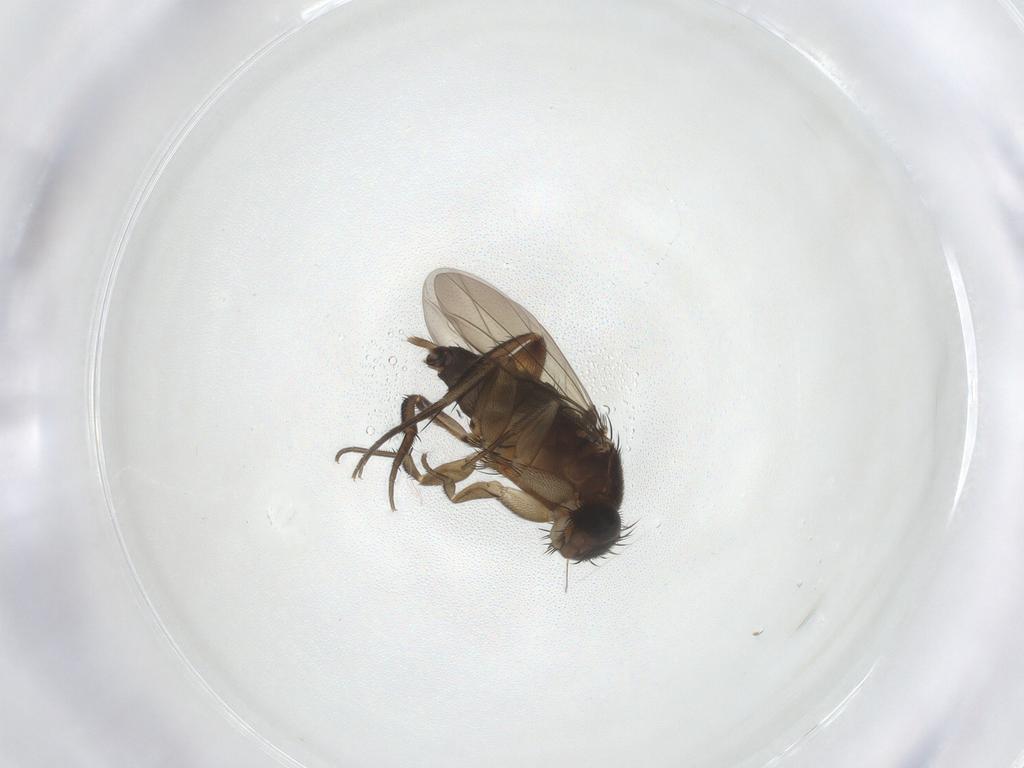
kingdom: Animalia
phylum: Arthropoda
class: Insecta
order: Diptera
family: Phoridae
